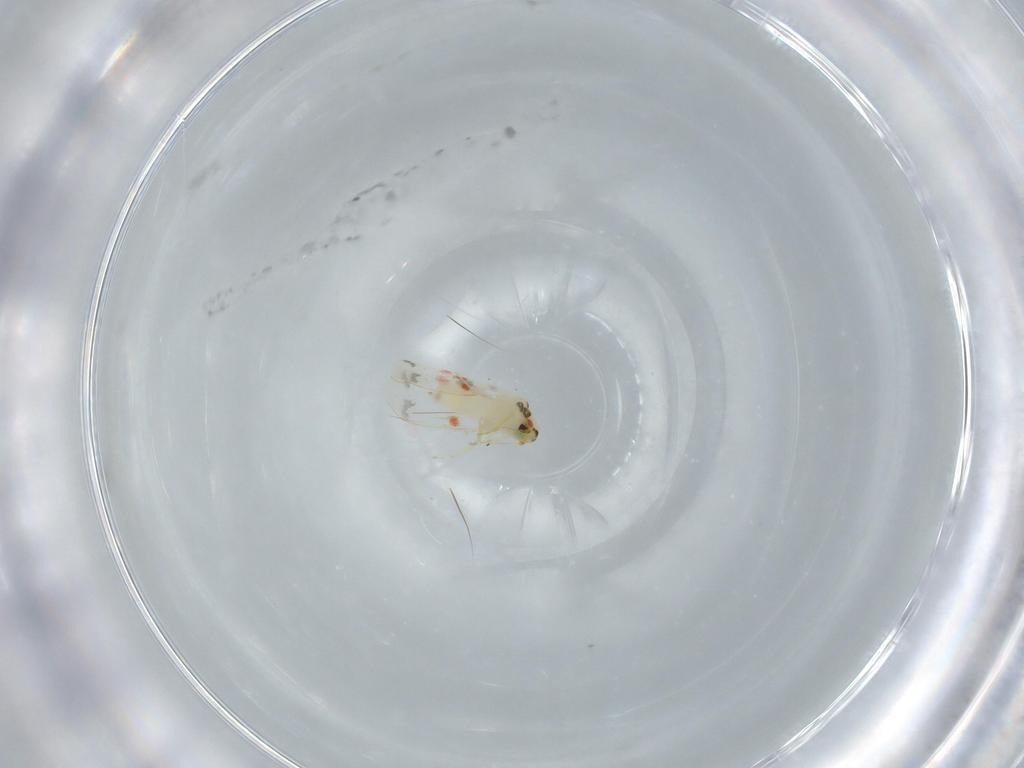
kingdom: Animalia
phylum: Arthropoda
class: Insecta
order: Hemiptera
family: Aleyrodidae
